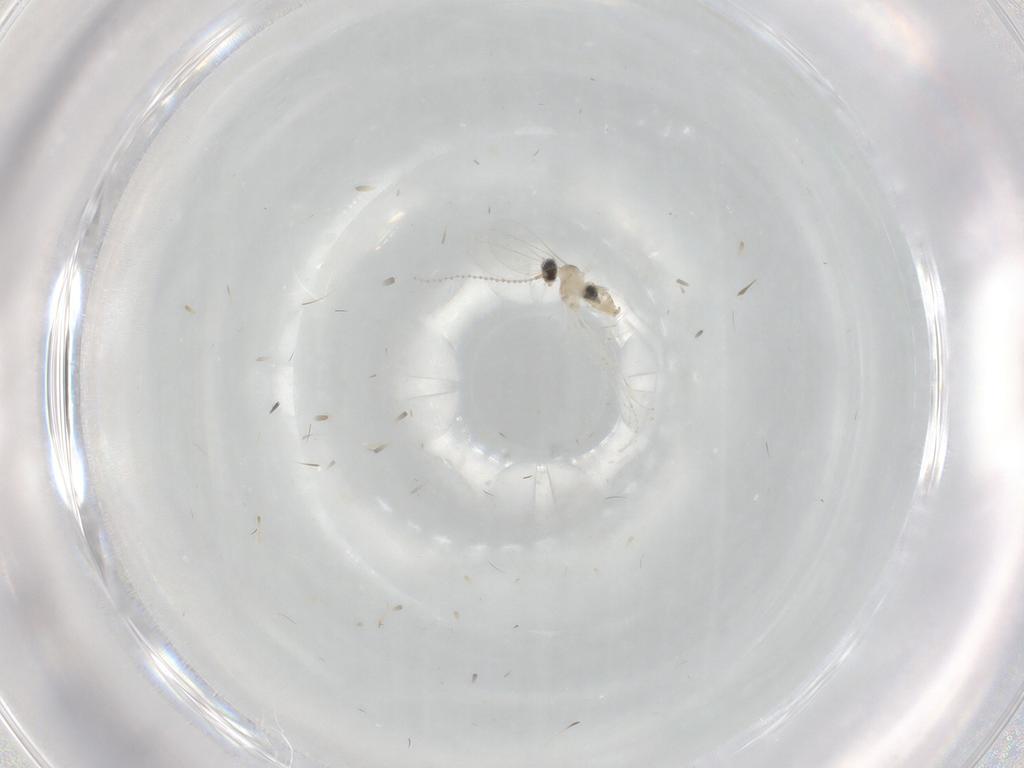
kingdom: Animalia
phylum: Arthropoda
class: Insecta
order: Diptera
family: Cecidomyiidae
